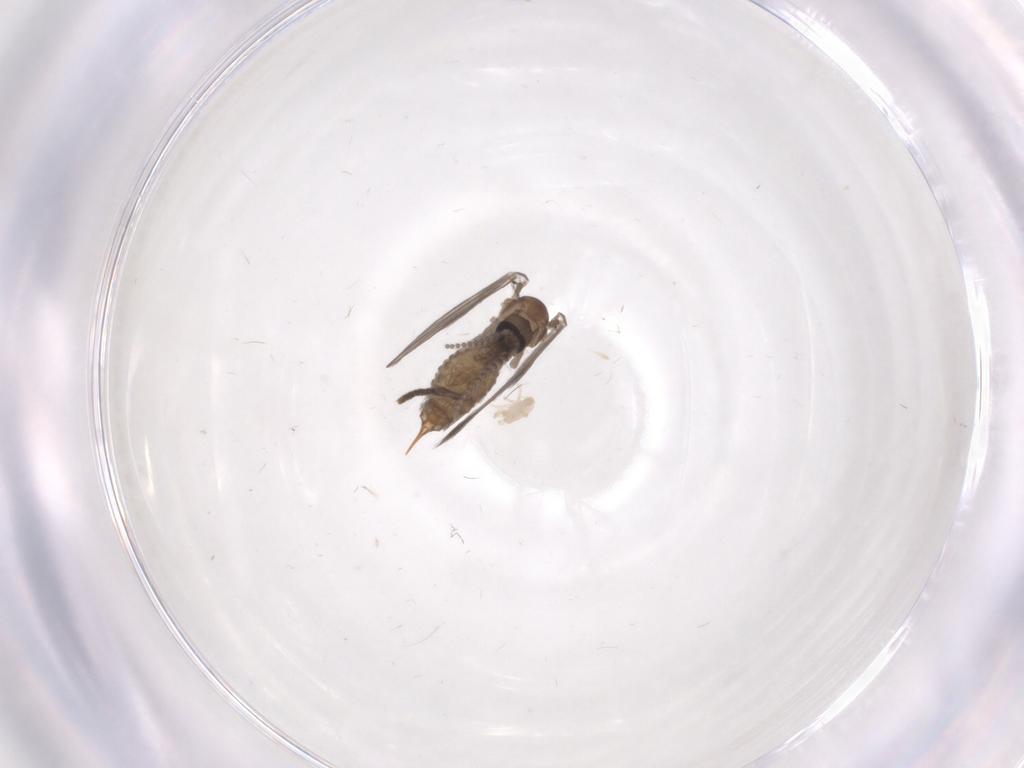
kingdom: Animalia
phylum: Arthropoda
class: Insecta
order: Diptera
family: Psychodidae
